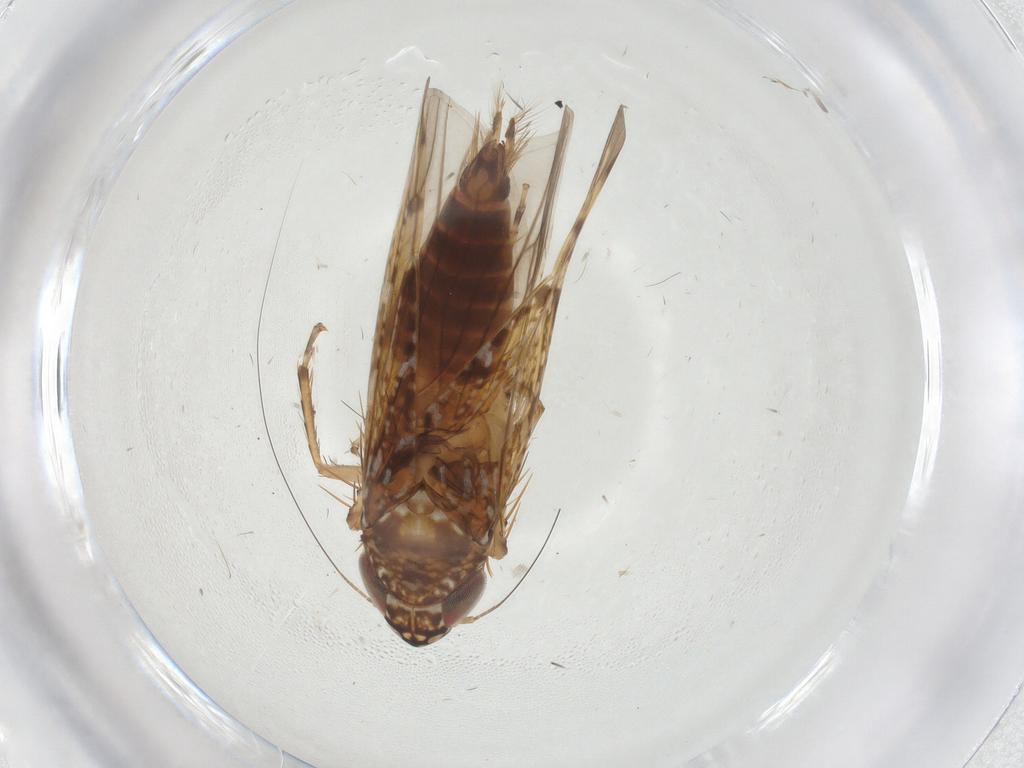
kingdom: Animalia
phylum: Arthropoda
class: Insecta
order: Hemiptera
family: Cicadellidae
